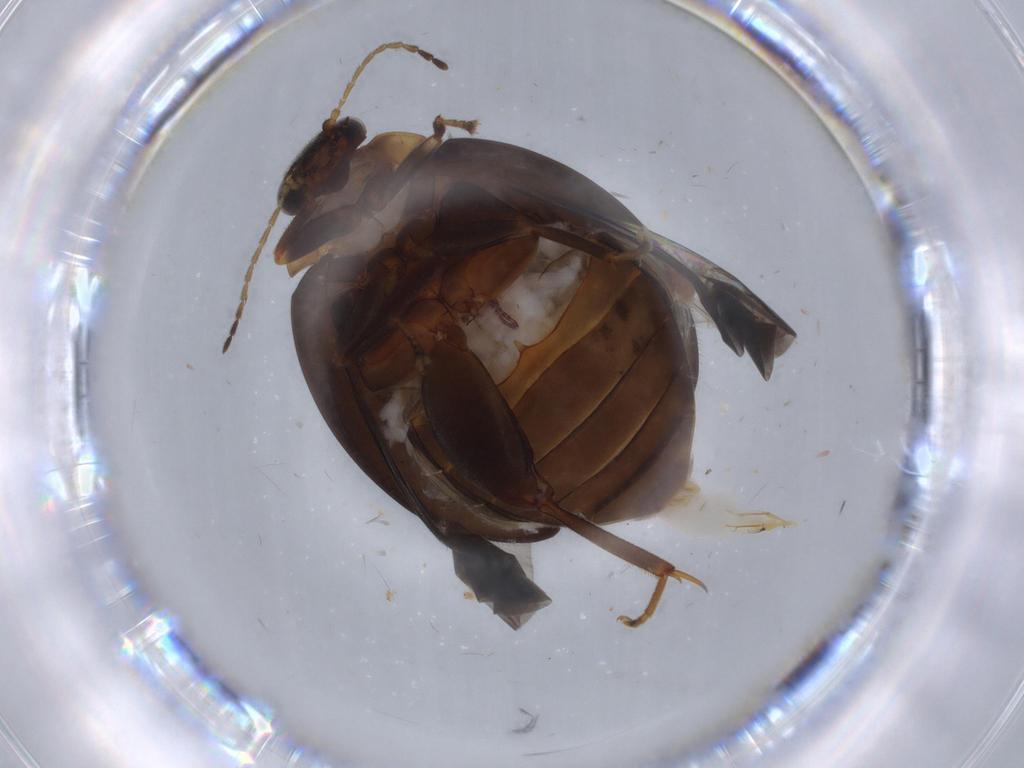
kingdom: Animalia
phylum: Arthropoda
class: Insecta
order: Coleoptera
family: Scirtidae
